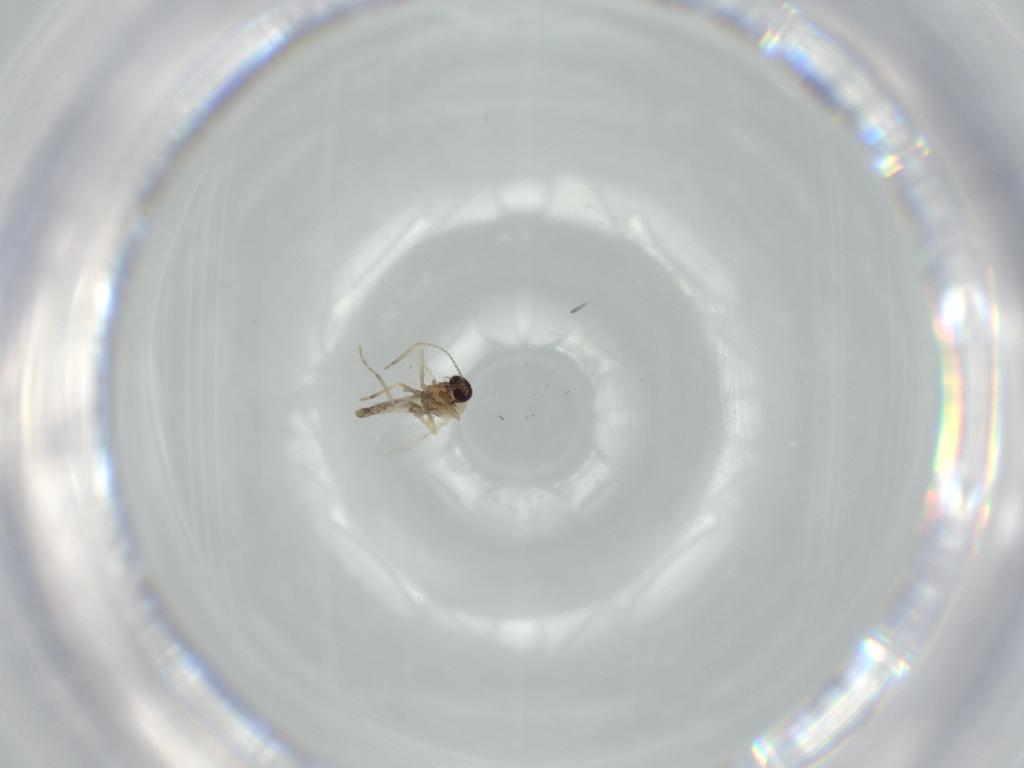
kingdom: Animalia
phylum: Arthropoda
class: Insecta
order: Diptera
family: Ceratopogonidae
